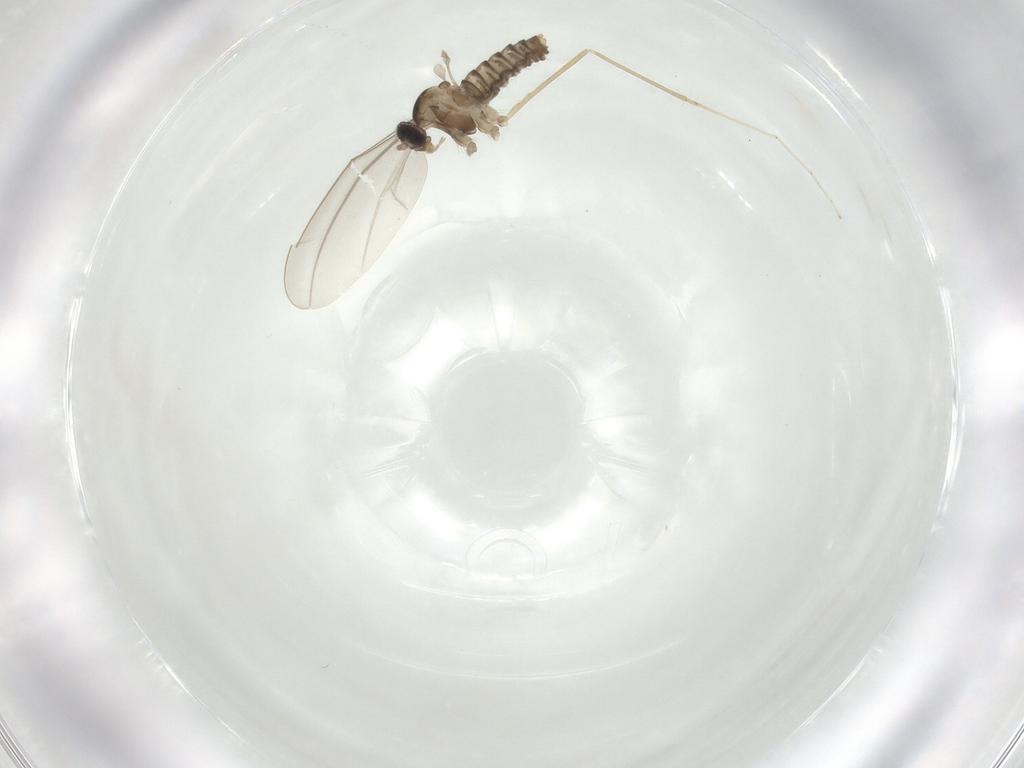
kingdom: Animalia
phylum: Arthropoda
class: Insecta
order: Diptera
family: Cecidomyiidae
